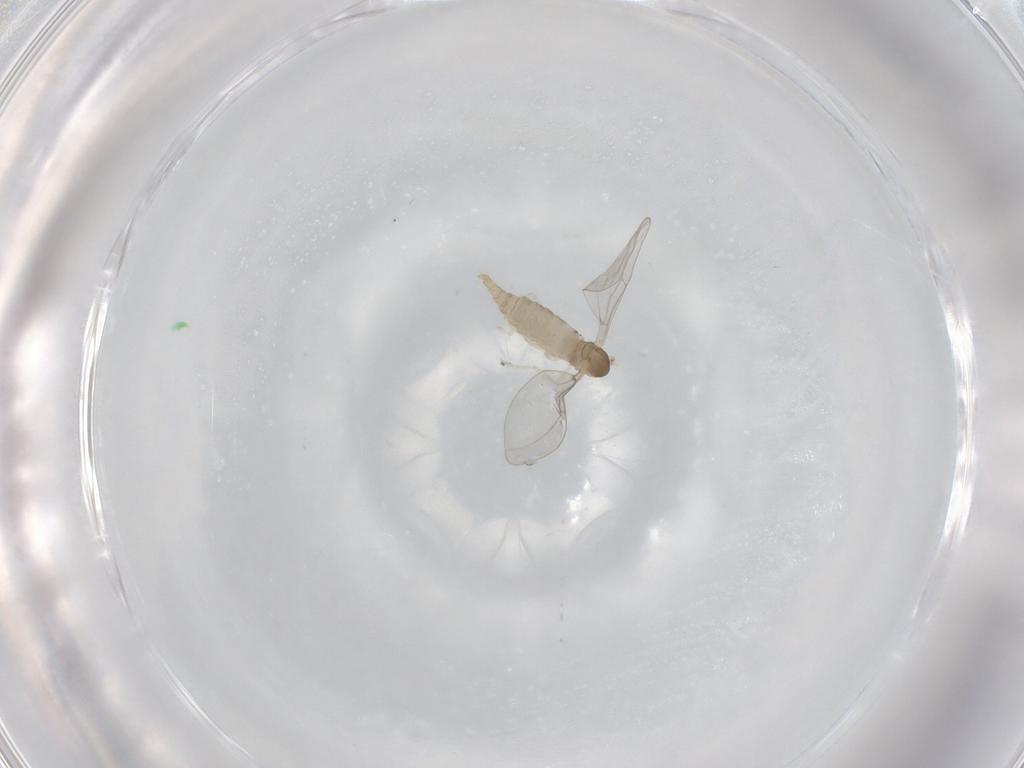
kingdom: Animalia
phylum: Arthropoda
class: Insecta
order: Diptera
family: Cecidomyiidae
